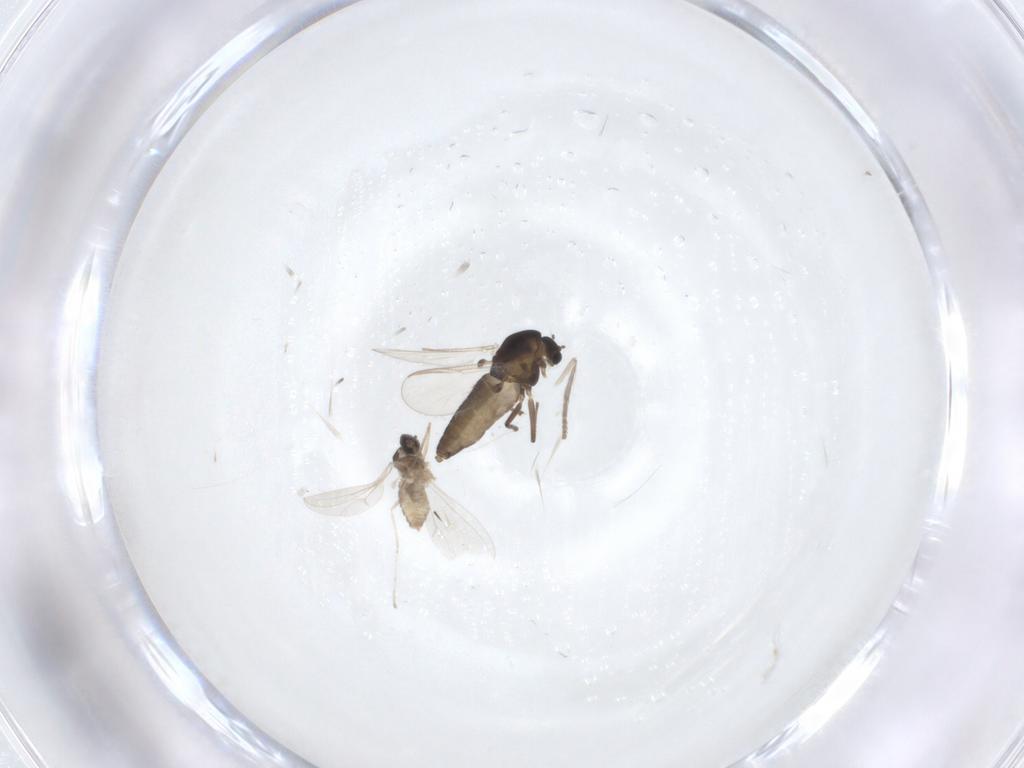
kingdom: Animalia
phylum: Arthropoda
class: Insecta
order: Diptera
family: Chironomidae
